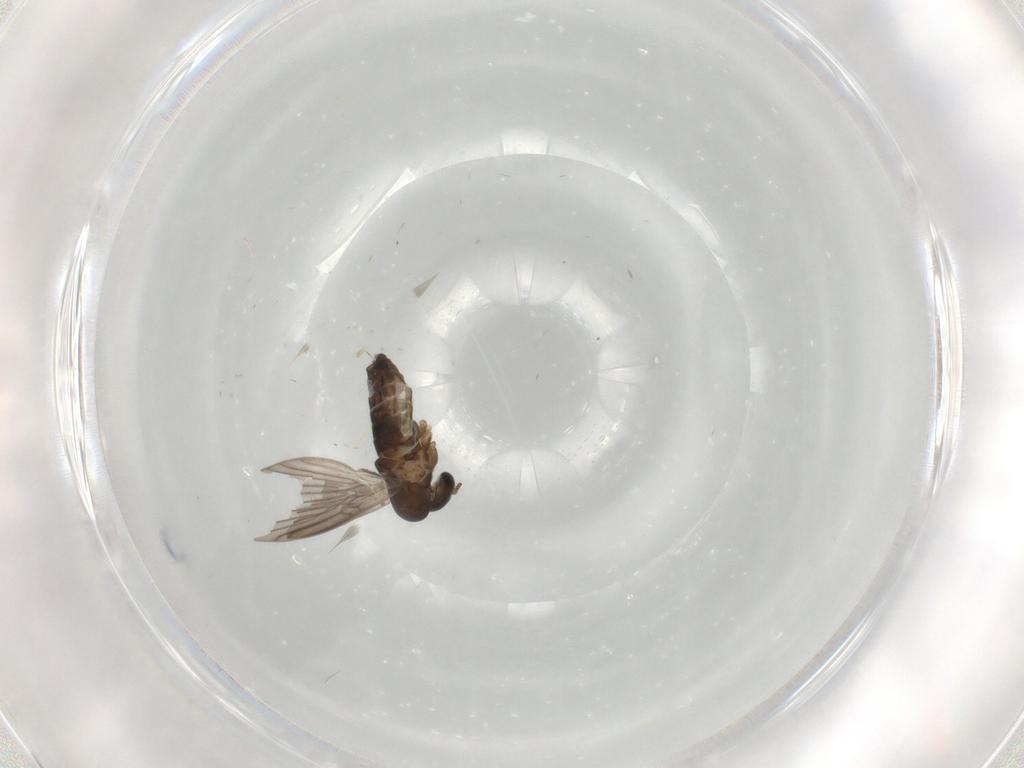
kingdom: Animalia
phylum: Arthropoda
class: Insecta
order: Diptera
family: Cecidomyiidae
